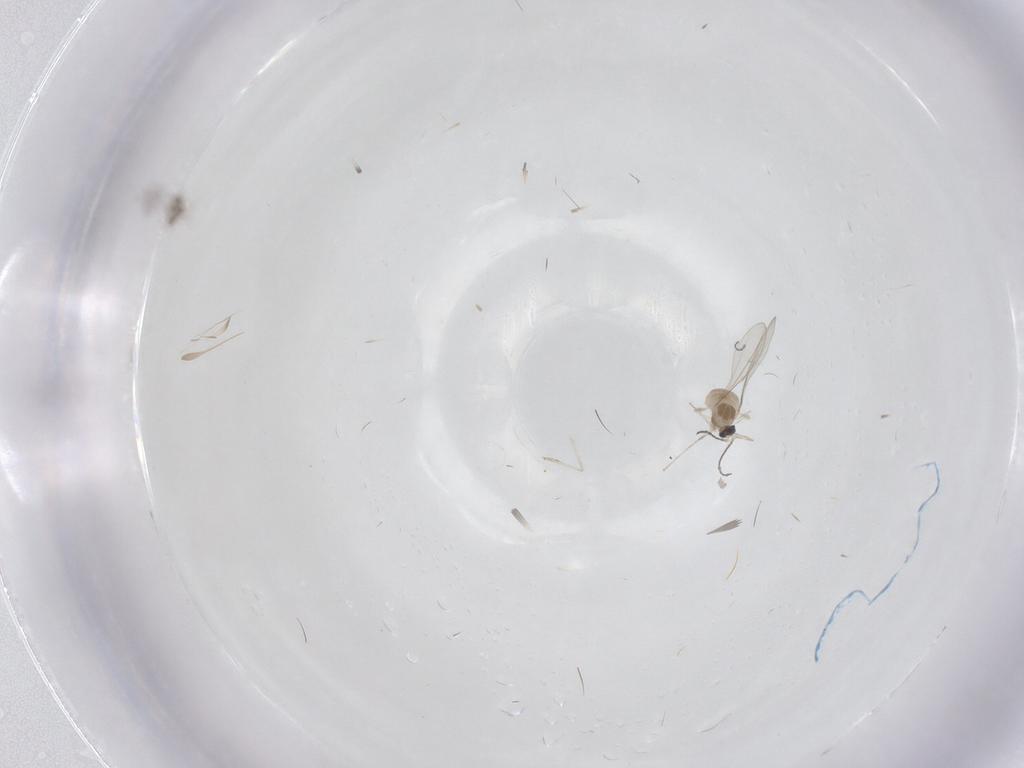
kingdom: Animalia
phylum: Arthropoda
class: Insecta
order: Diptera
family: Cecidomyiidae
